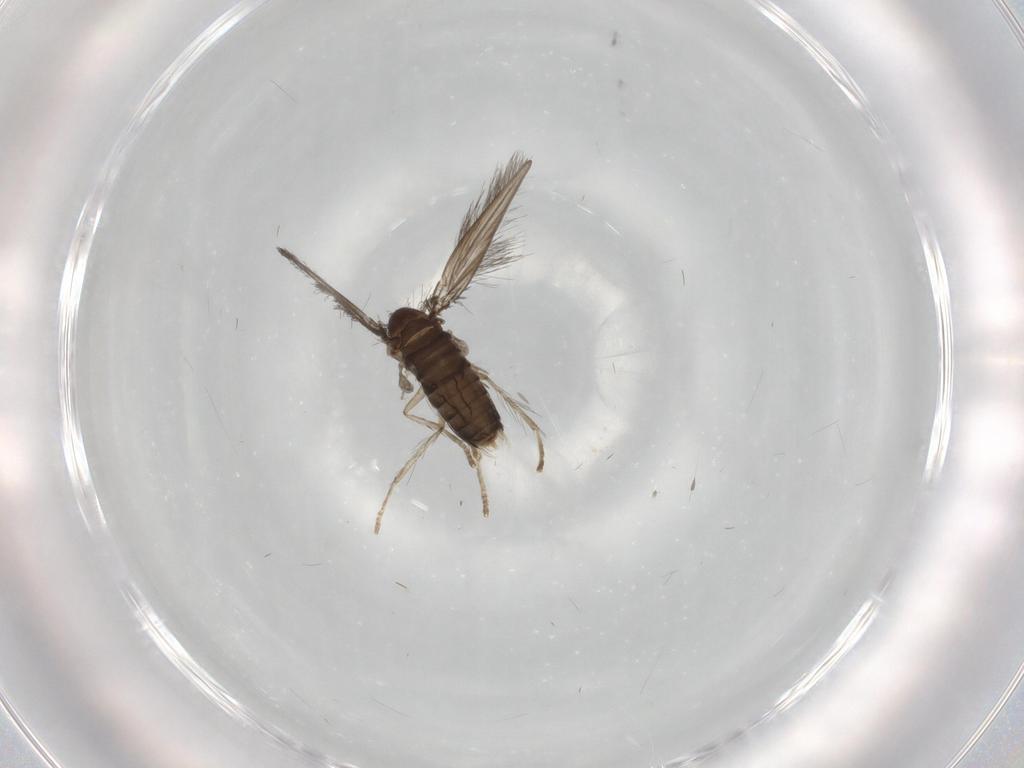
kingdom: Animalia
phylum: Arthropoda
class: Insecta
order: Diptera
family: Psychodidae
